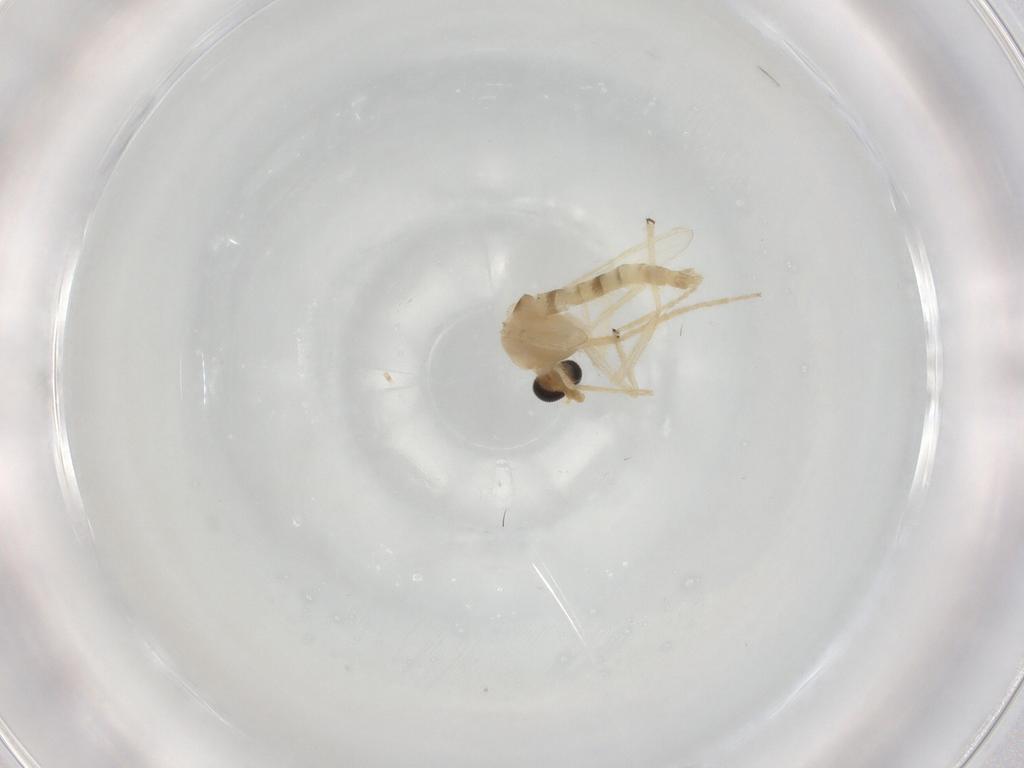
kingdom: Animalia
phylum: Arthropoda
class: Insecta
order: Diptera
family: Chironomidae
